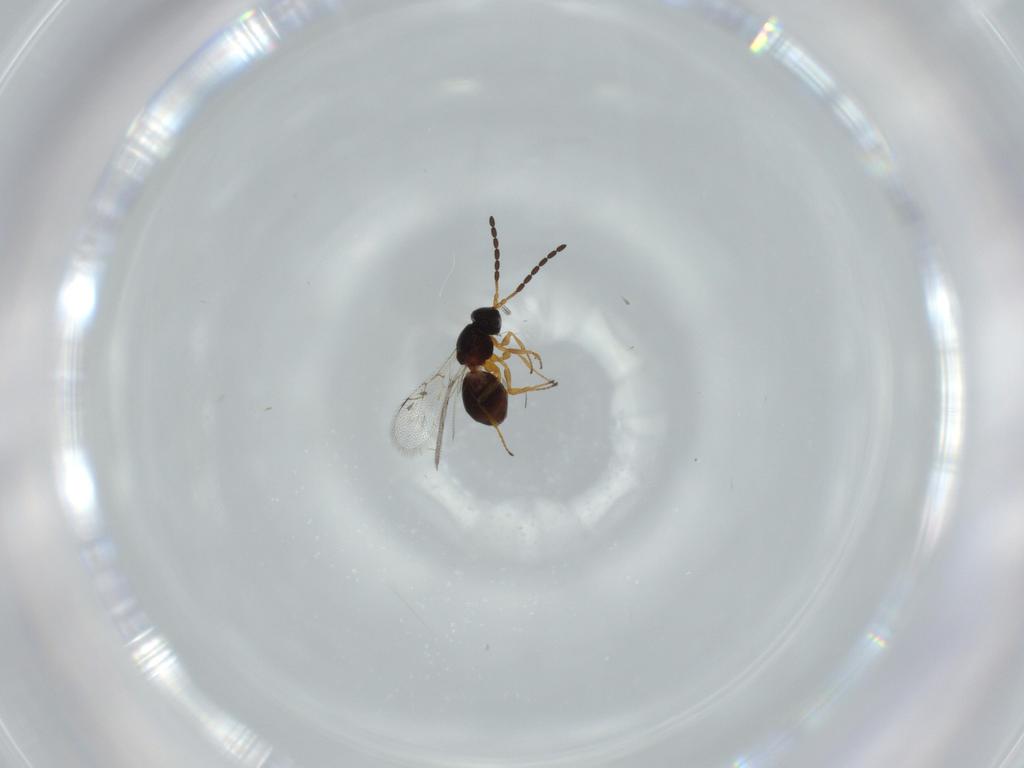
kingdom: Animalia
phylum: Arthropoda
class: Insecta
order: Hymenoptera
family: Figitidae
